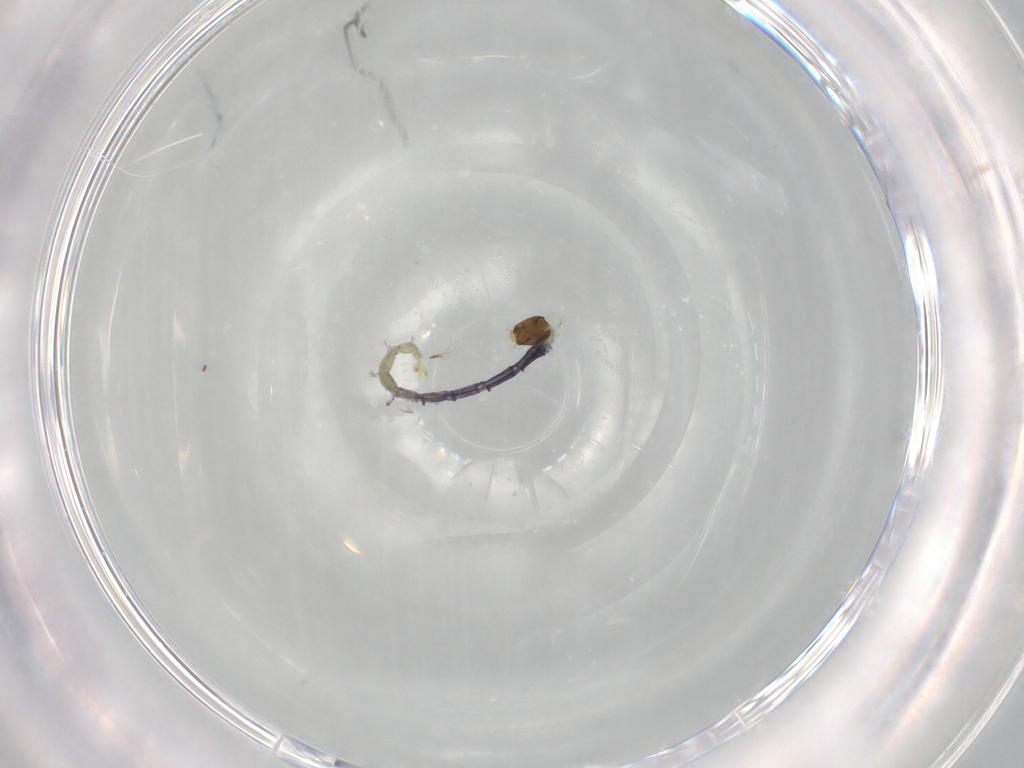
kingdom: Animalia
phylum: Arthropoda
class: Insecta
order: Diptera
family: Chironomidae
